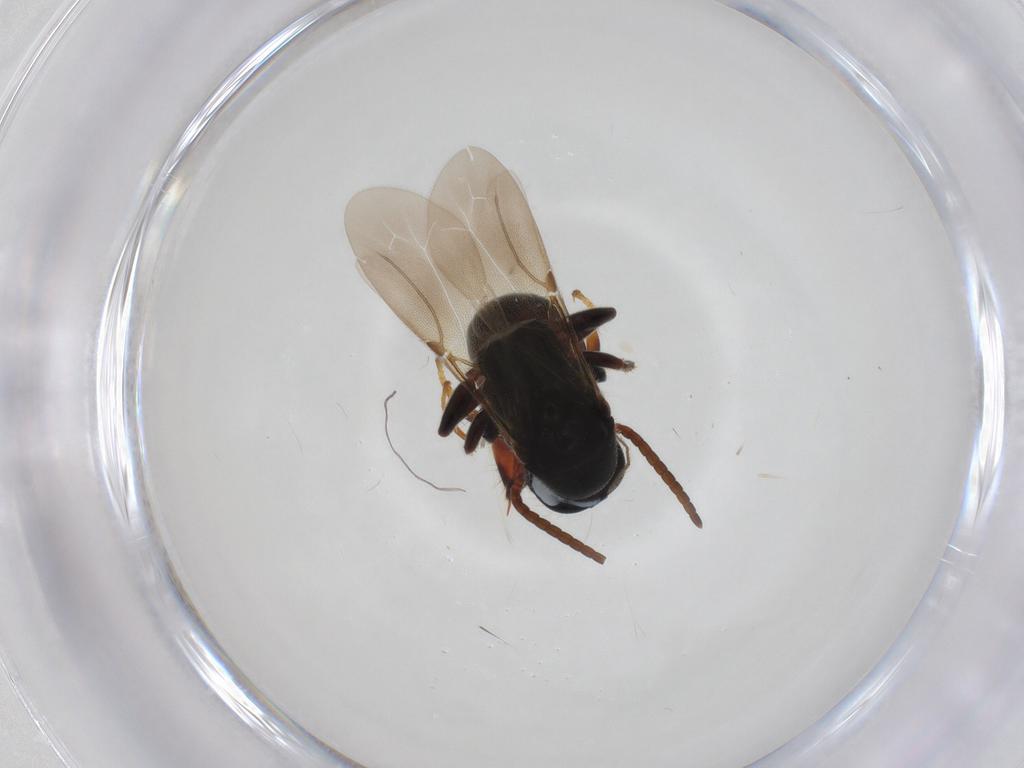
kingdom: Animalia
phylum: Arthropoda
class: Insecta
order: Hymenoptera
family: Bethylidae
